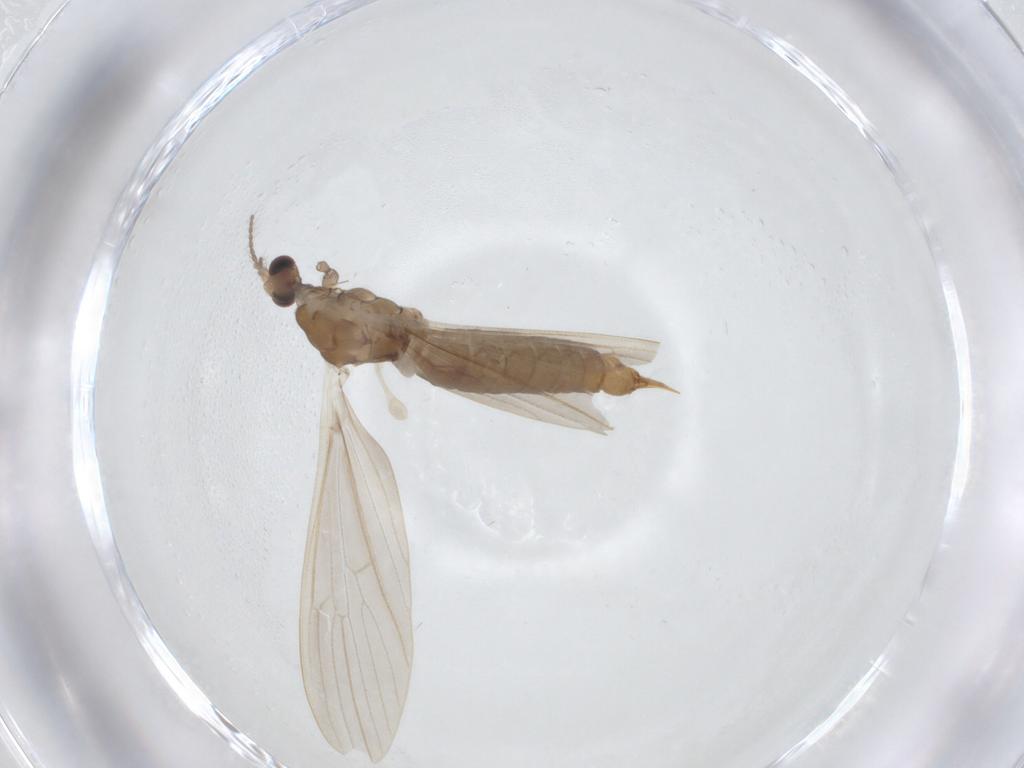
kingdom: Animalia
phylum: Arthropoda
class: Insecta
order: Diptera
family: Limoniidae
